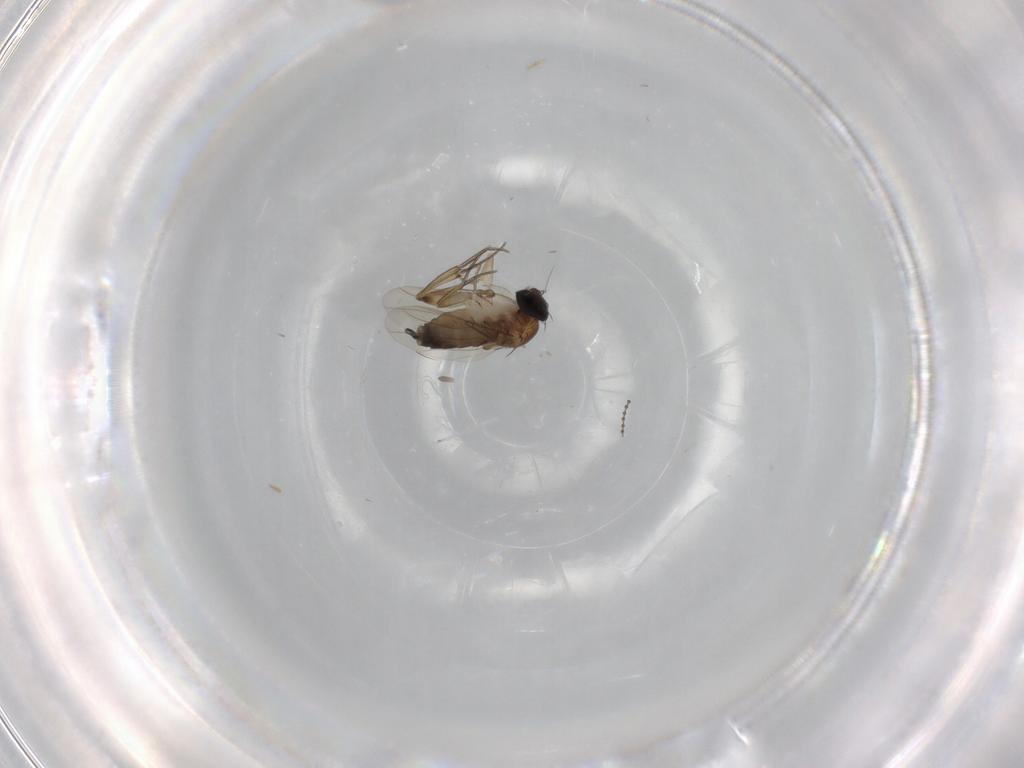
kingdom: Animalia
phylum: Arthropoda
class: Insecta
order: Diptera
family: Phoridae
